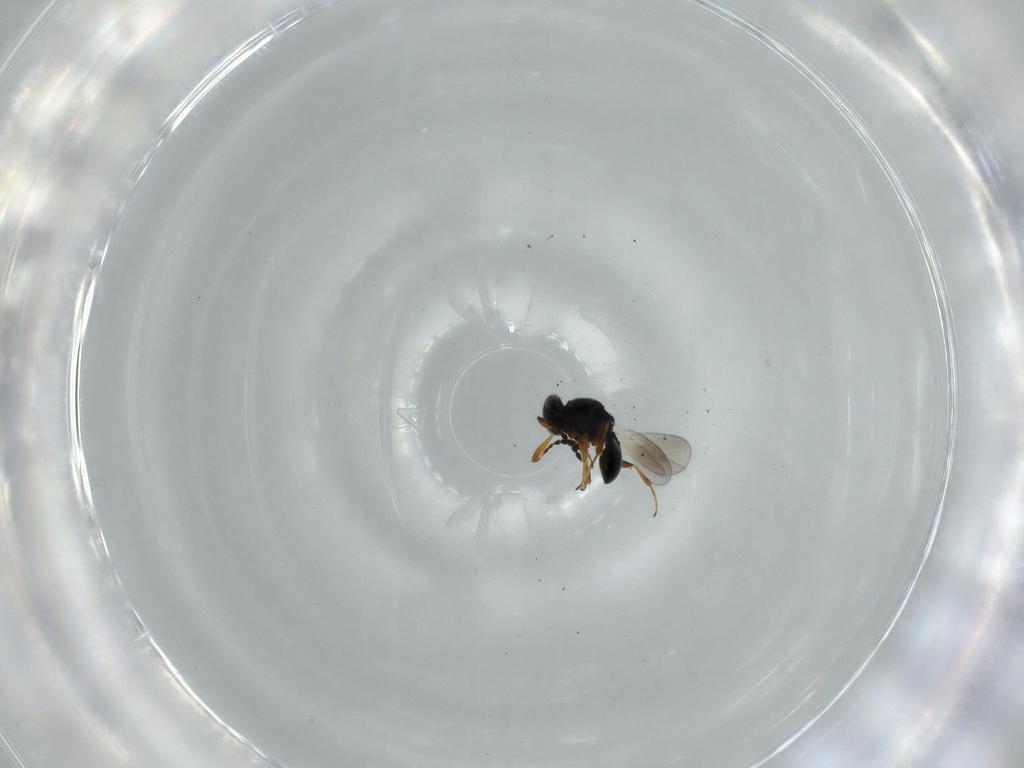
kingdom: Animalia
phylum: Arthropoda
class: Insecta
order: Hymenoptera
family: Platygastridae
